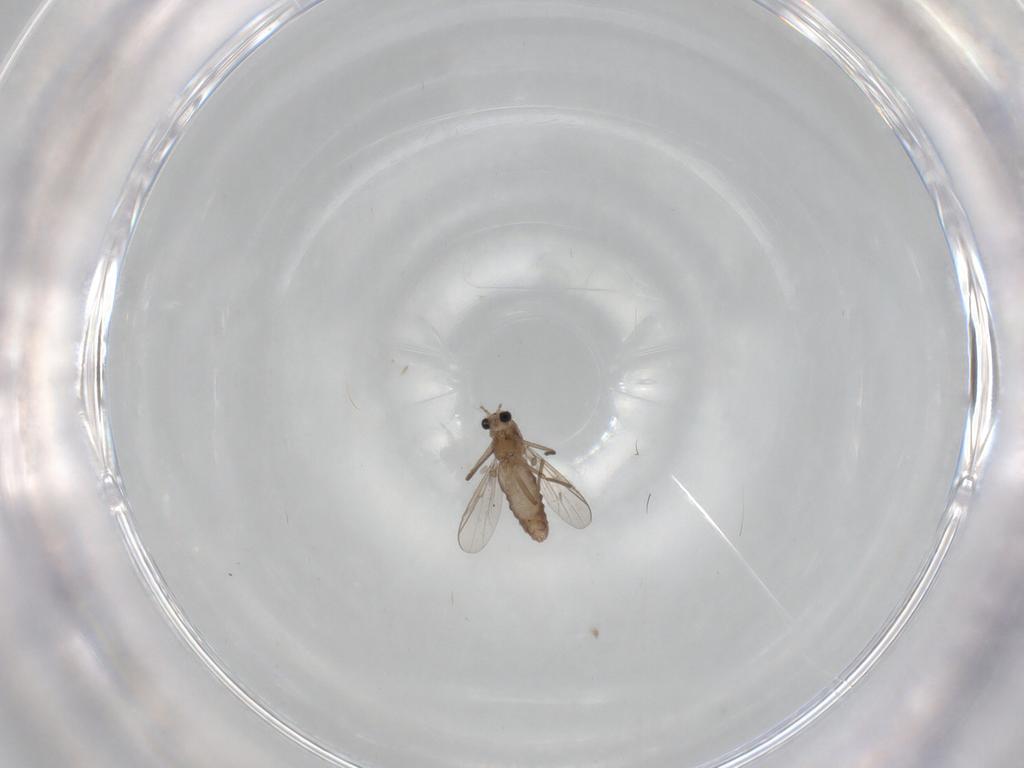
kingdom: Animalia
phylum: Arthropoda
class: Insecta
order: Diptera
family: Chironomidae
